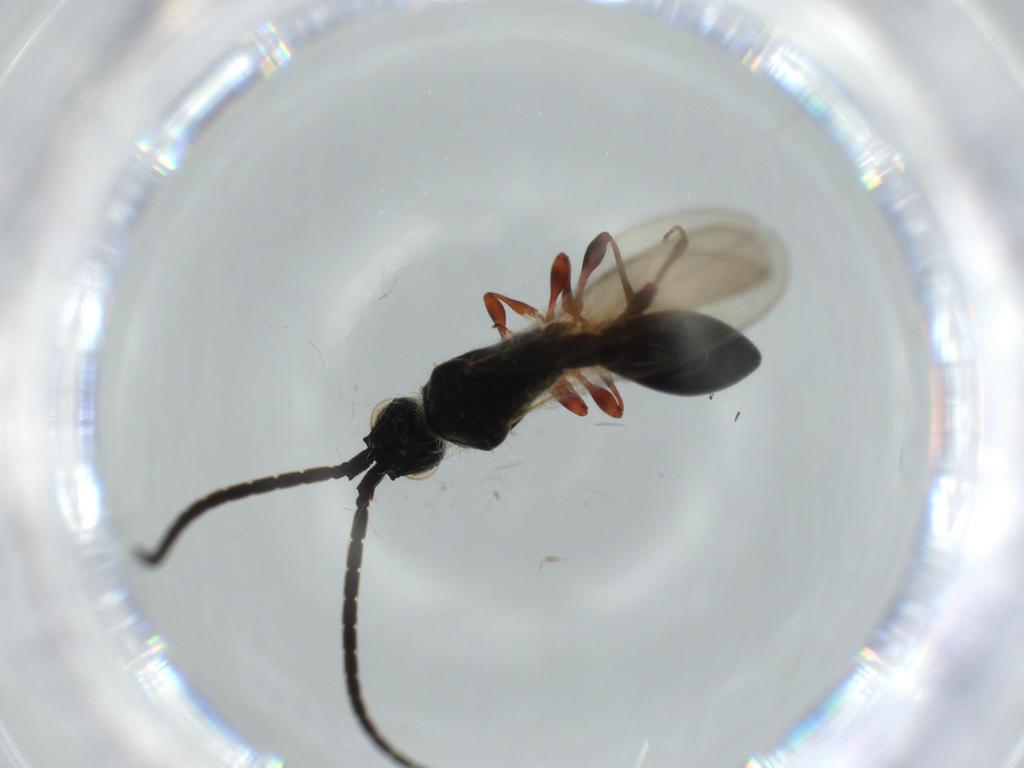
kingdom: Animalia
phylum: Arthropoda
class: Insecta
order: Hymenoptera
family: Diapriidae
